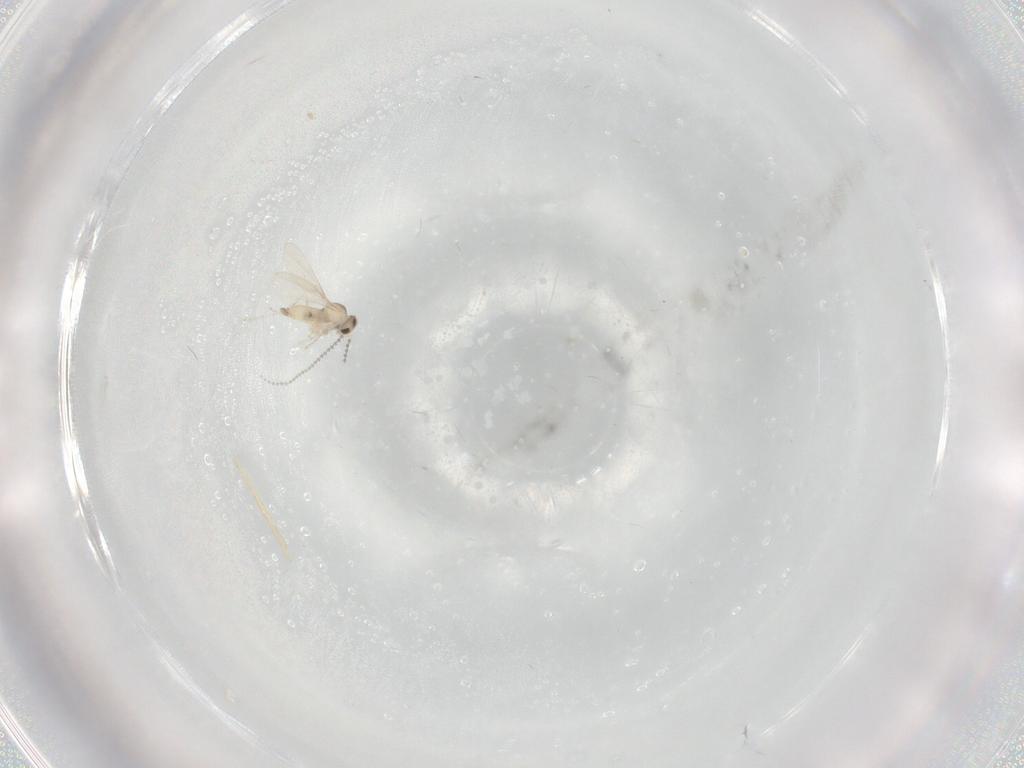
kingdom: Animalia
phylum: Arthropoda
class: Insecta
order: Diptera
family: Cecidomyiidae
